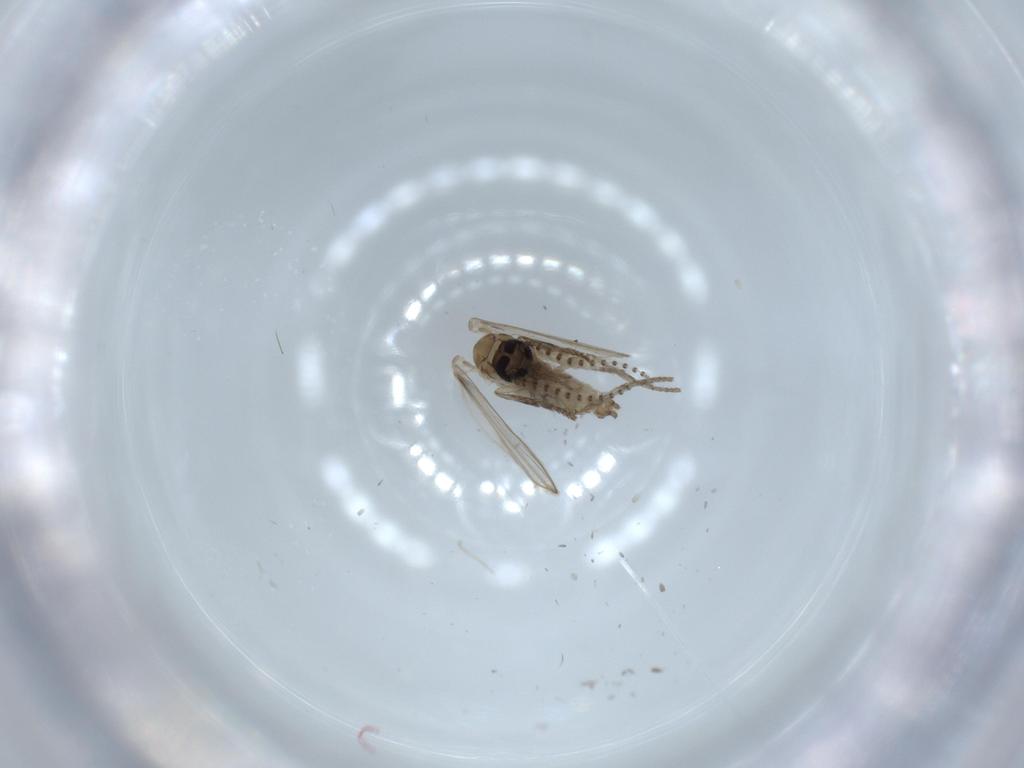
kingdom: Animalia
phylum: Arthropoda
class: Insecta
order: Diptera
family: Psychodidae
